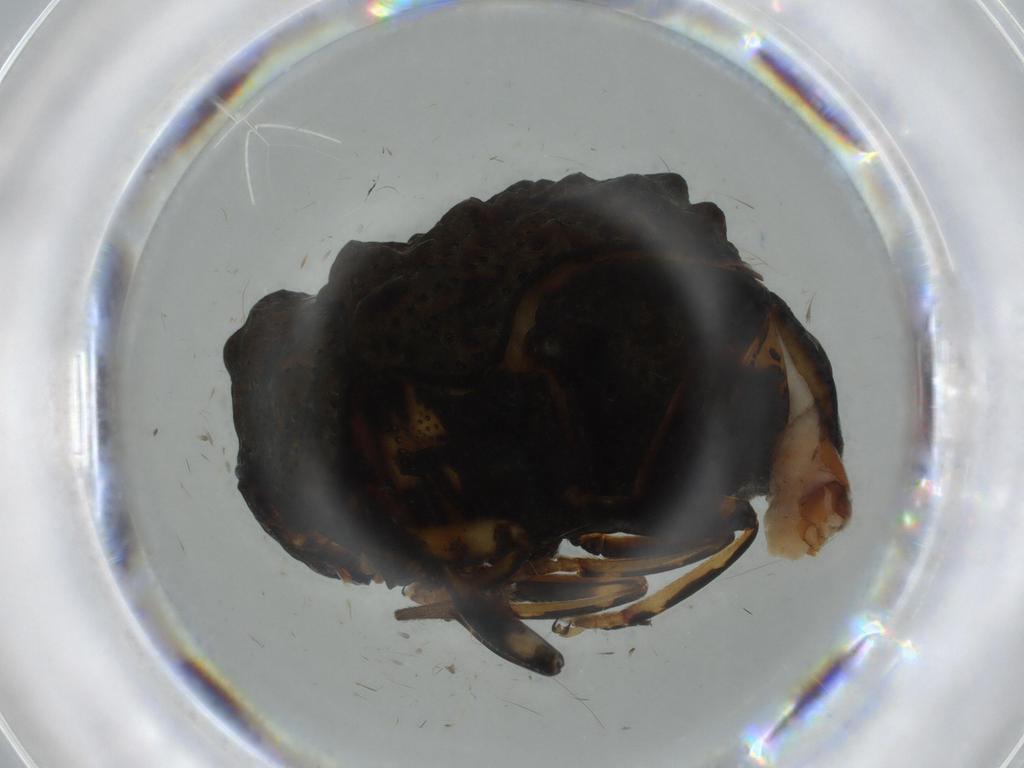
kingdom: Animalia
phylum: Arthropoda
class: Insecta
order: Coleoptera
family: Chrysomelidae
